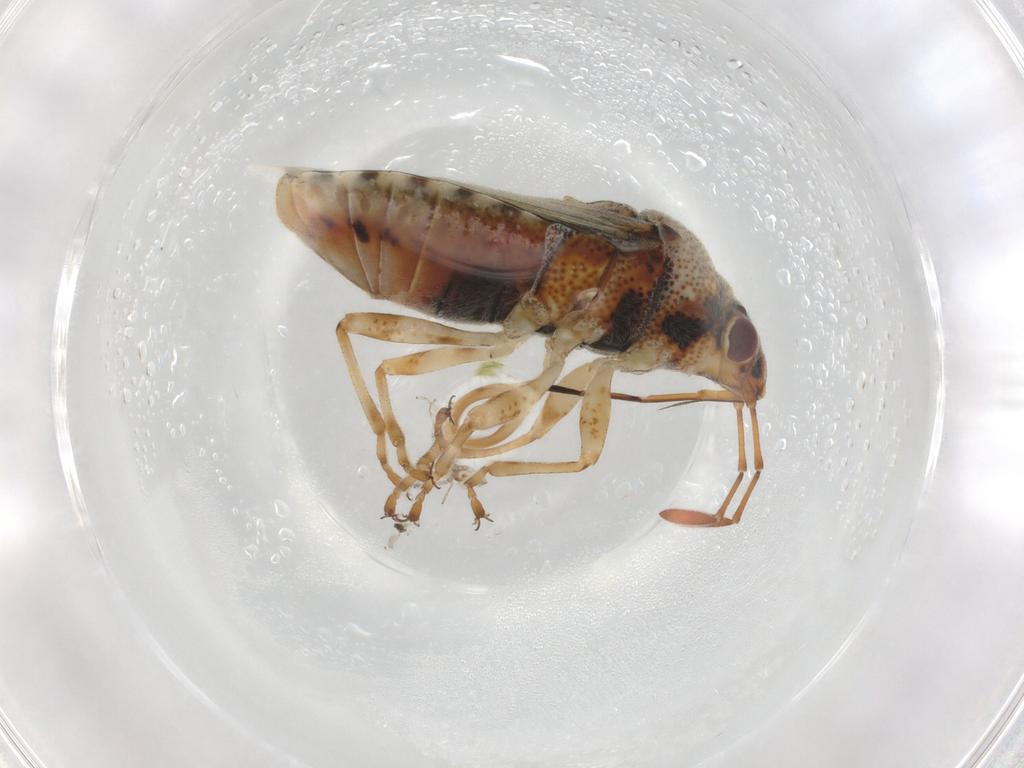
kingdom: Animalia
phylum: Arthropoda
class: Insecta
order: Hemiptera
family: Lygaeidae
